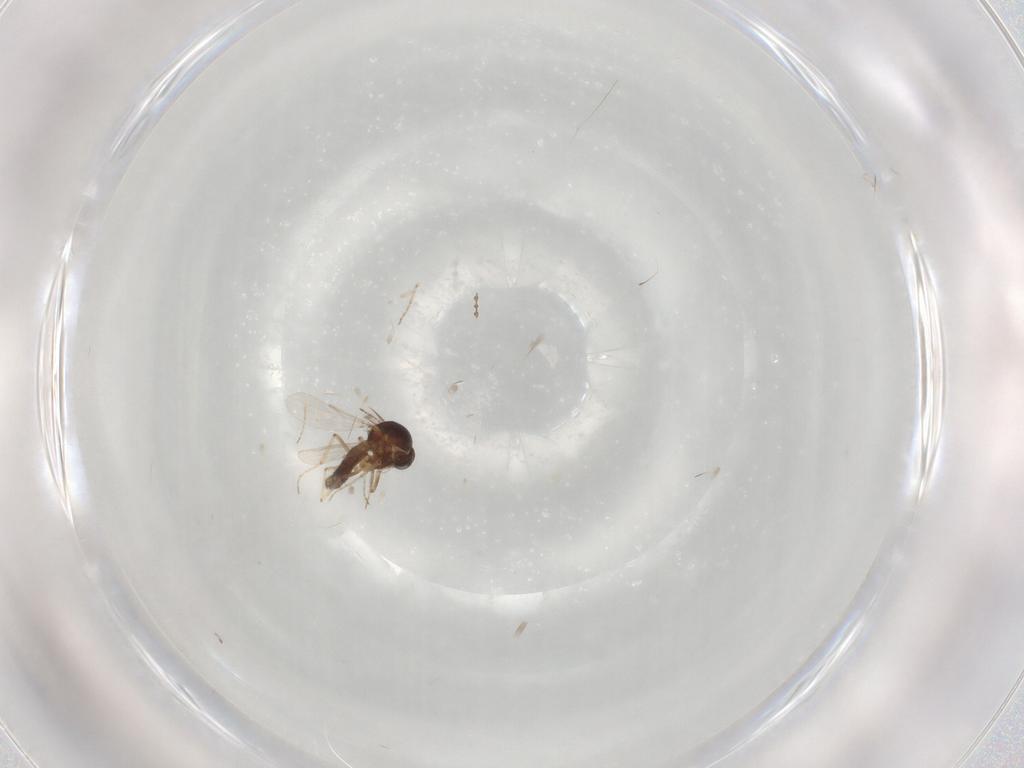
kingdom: Animalia
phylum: Arthropoda
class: Insecta
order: Diptera
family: Ceratopogonidae
